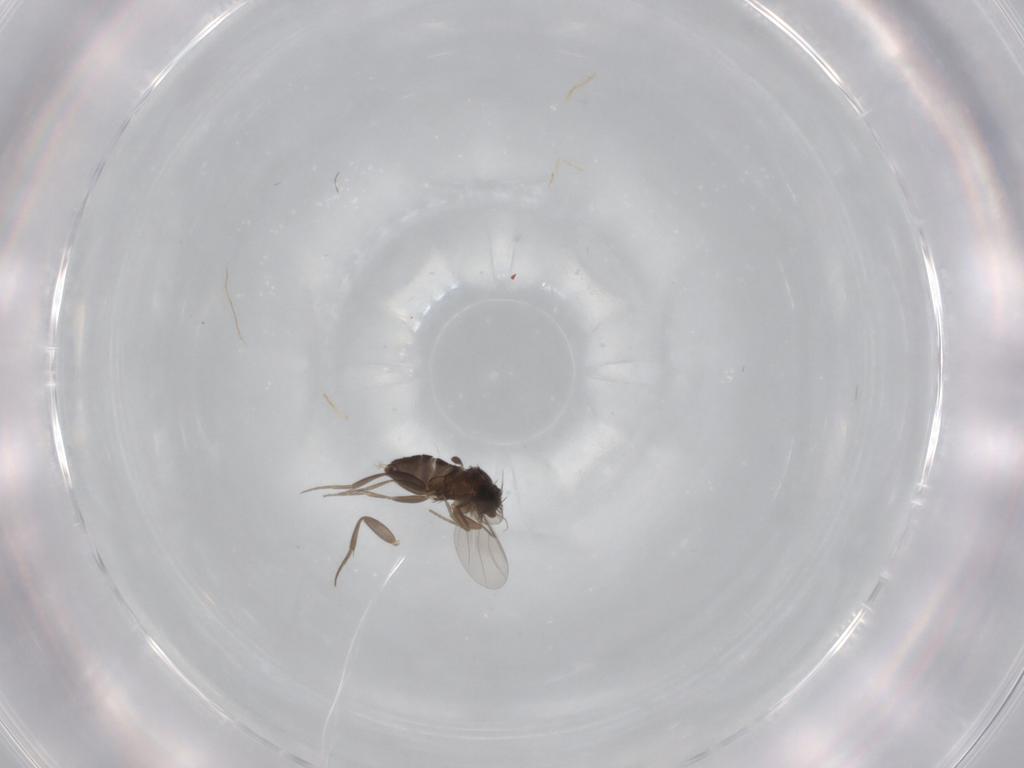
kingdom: Animalia
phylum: Arthropoda
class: Insecta
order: Diptera
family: Phoridae
